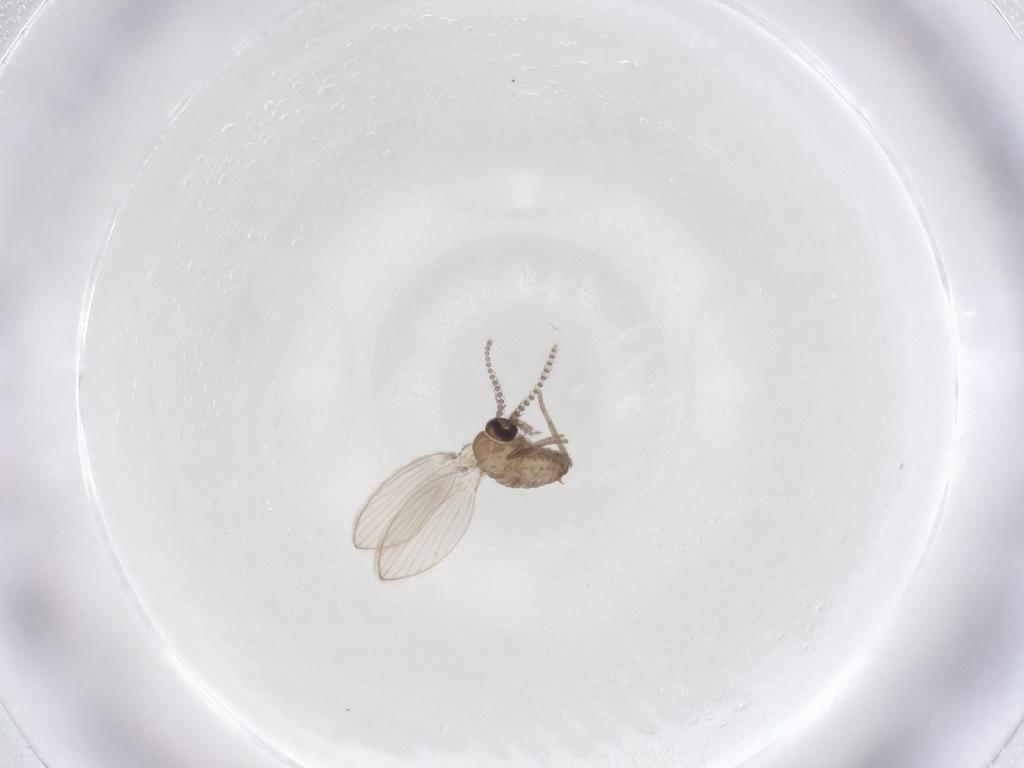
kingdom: Animalia
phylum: Arthropoda
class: Insecta
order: Diptera
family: Psychodidae
